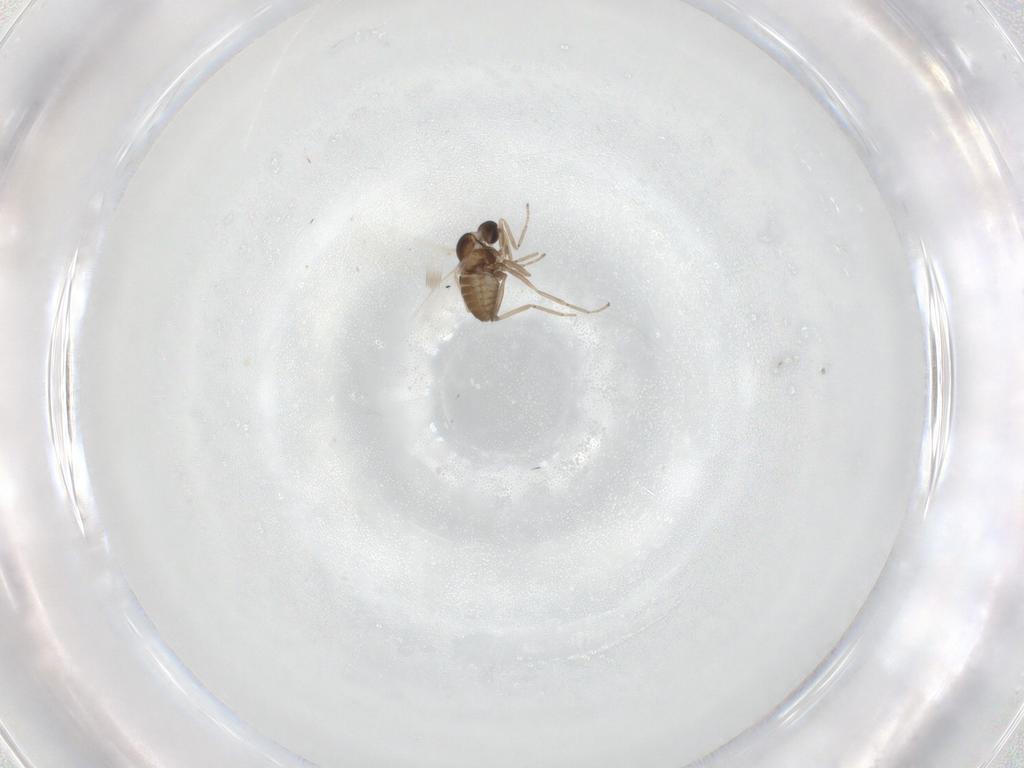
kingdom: Animalia
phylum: Arthropoda
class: Insecta
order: Diptera
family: Cecidomyiidae
